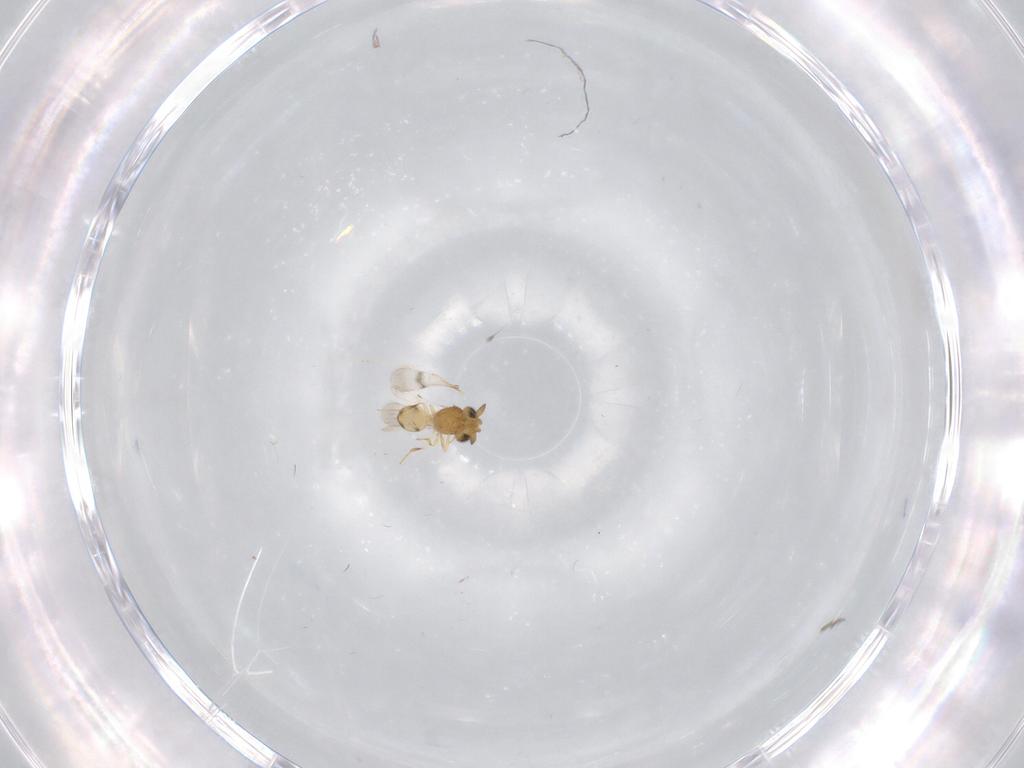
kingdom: Animalia
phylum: Arthropoda
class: Insecta
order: Hymenoptera
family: Scelionidae
